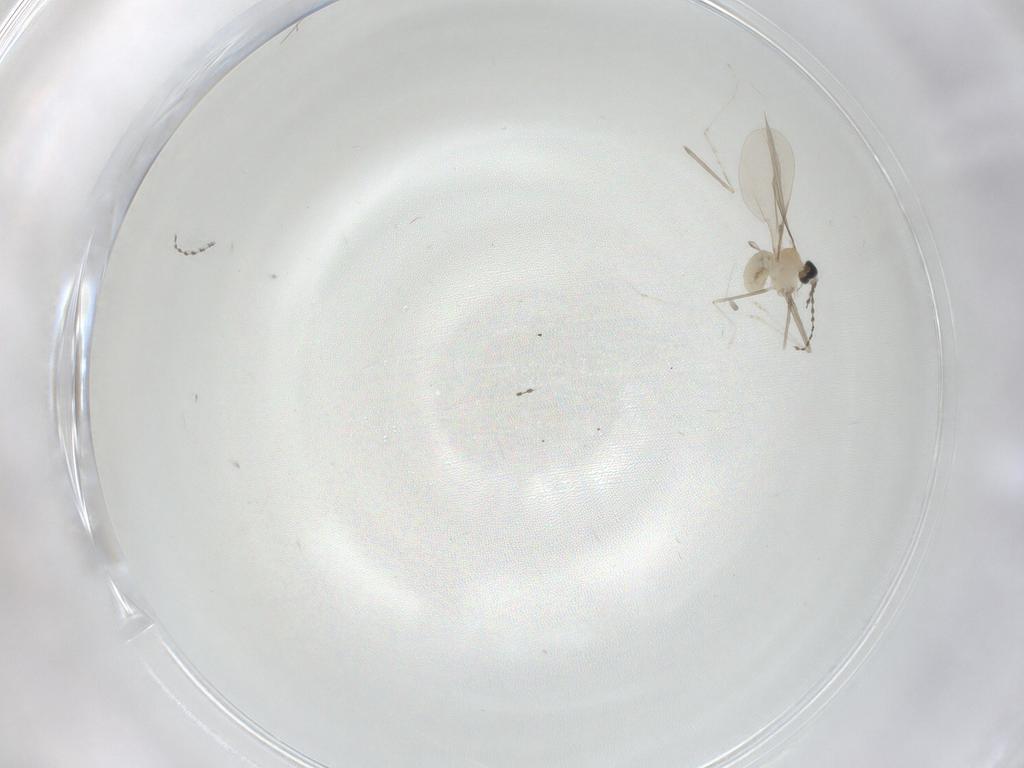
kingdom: Animalia
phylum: Arthropoda
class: Insecta
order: Diptera
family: Cecidomyiidae
